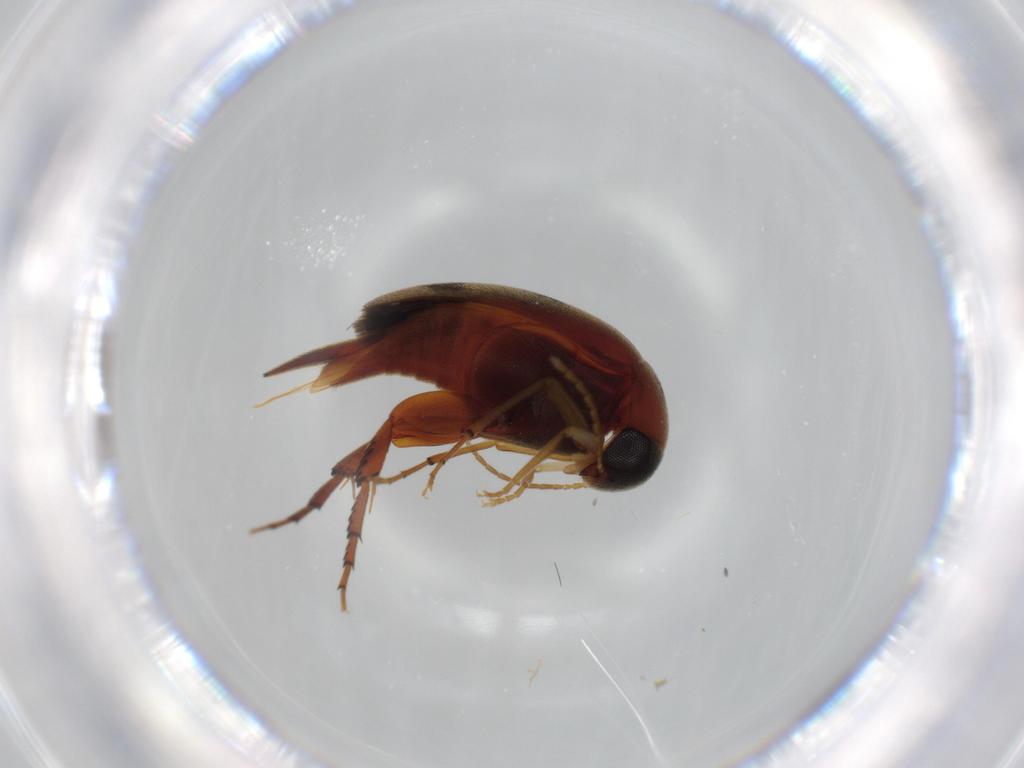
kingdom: Animalia
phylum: Arthropoda
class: Insecta
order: Coleoptera
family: Mordellidae
